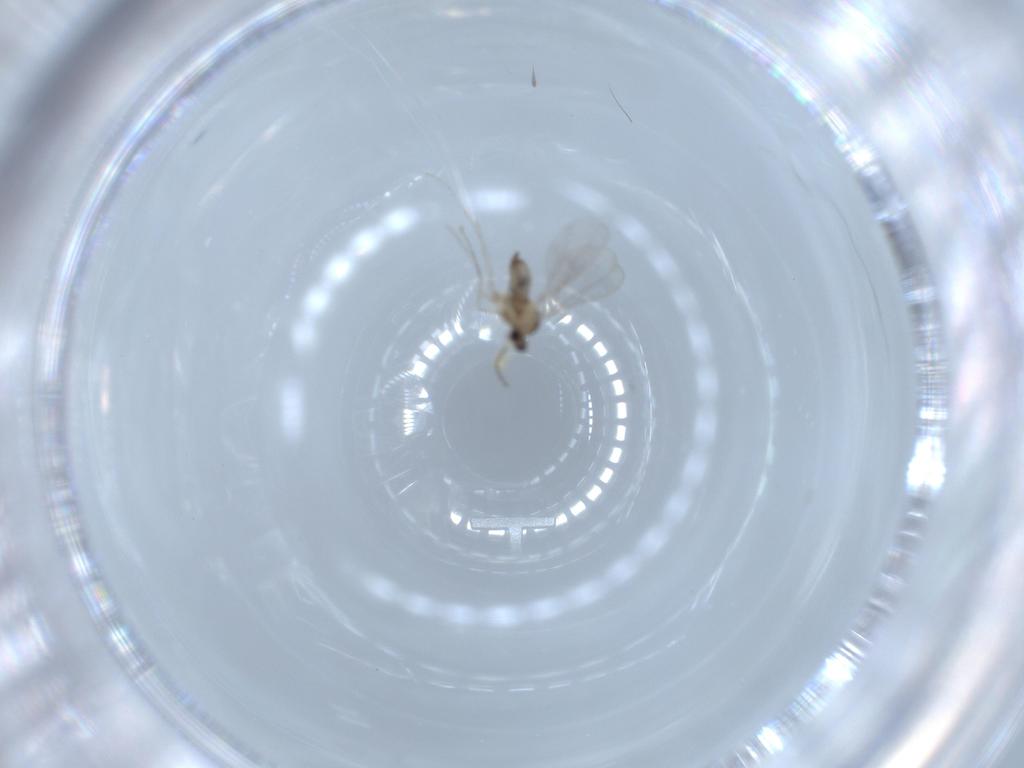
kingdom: Animalia
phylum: Arthropoda
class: Insecta
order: Diptera
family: Cecidomyiidae
